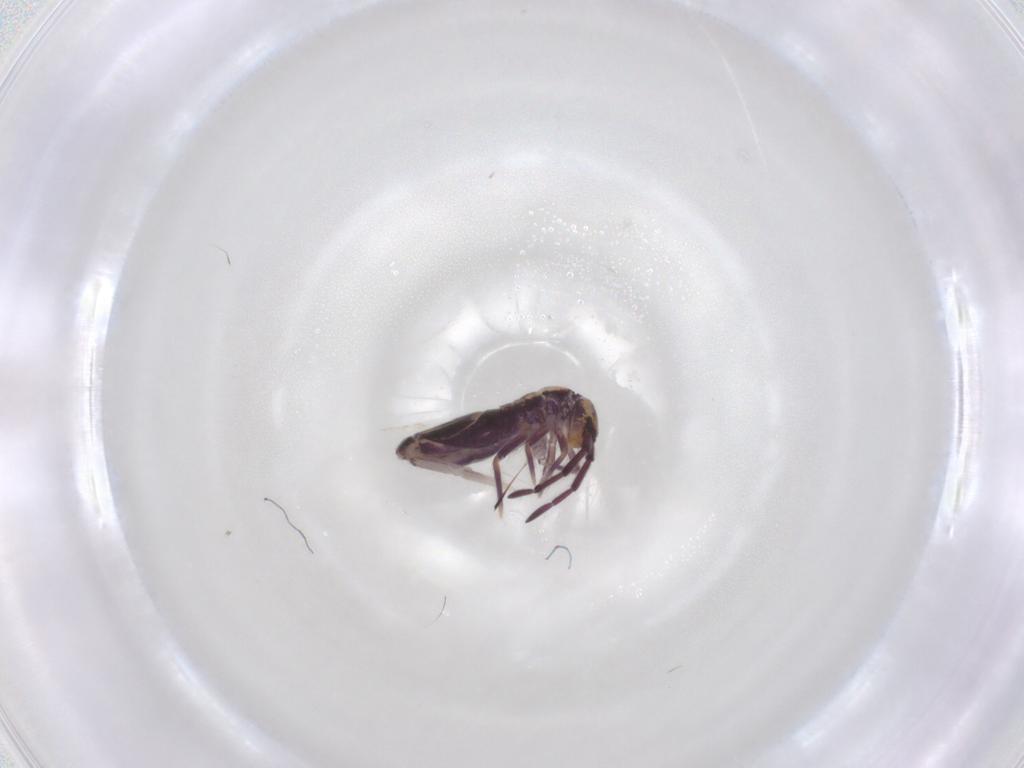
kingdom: Animalia
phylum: Arthropoda
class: Collembola
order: Entomobryomorpha
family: Entomobryidae
